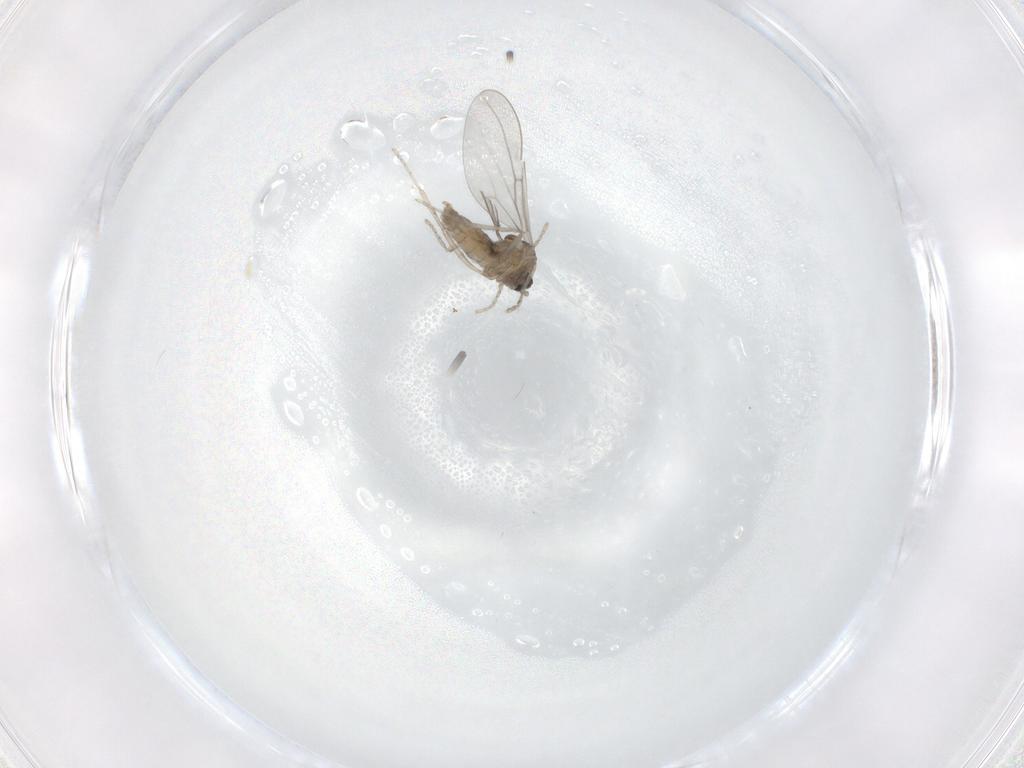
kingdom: Animalia
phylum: Arthropoda
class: Insecta
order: Diptera
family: Cecidomyiidae
